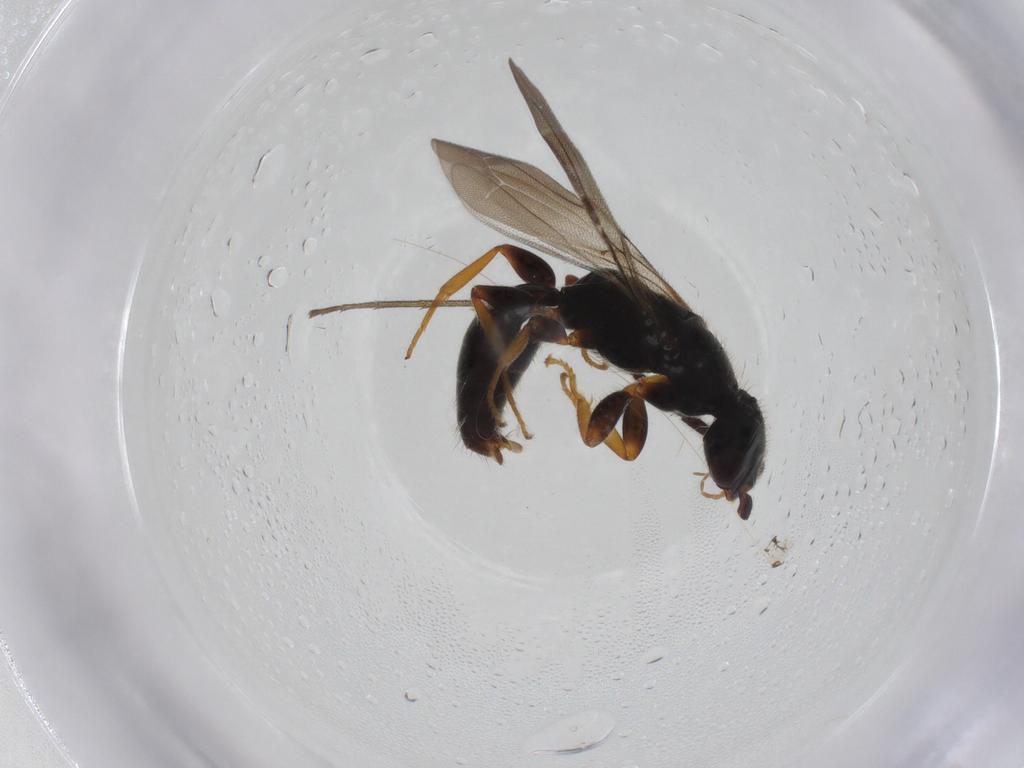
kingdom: Animalia
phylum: Arthropoda
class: Insecta
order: Hymenoptera
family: Bethylidae
